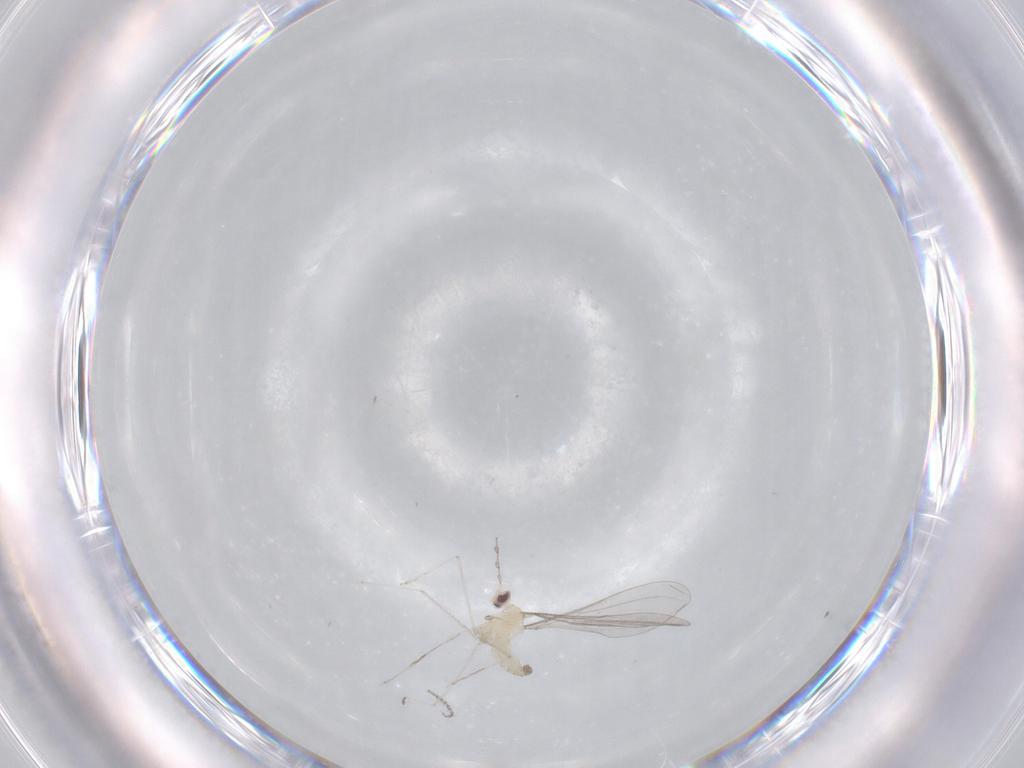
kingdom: Animalia
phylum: Arthropoda
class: Insecta
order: Diptera
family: Cecidomyiidae
